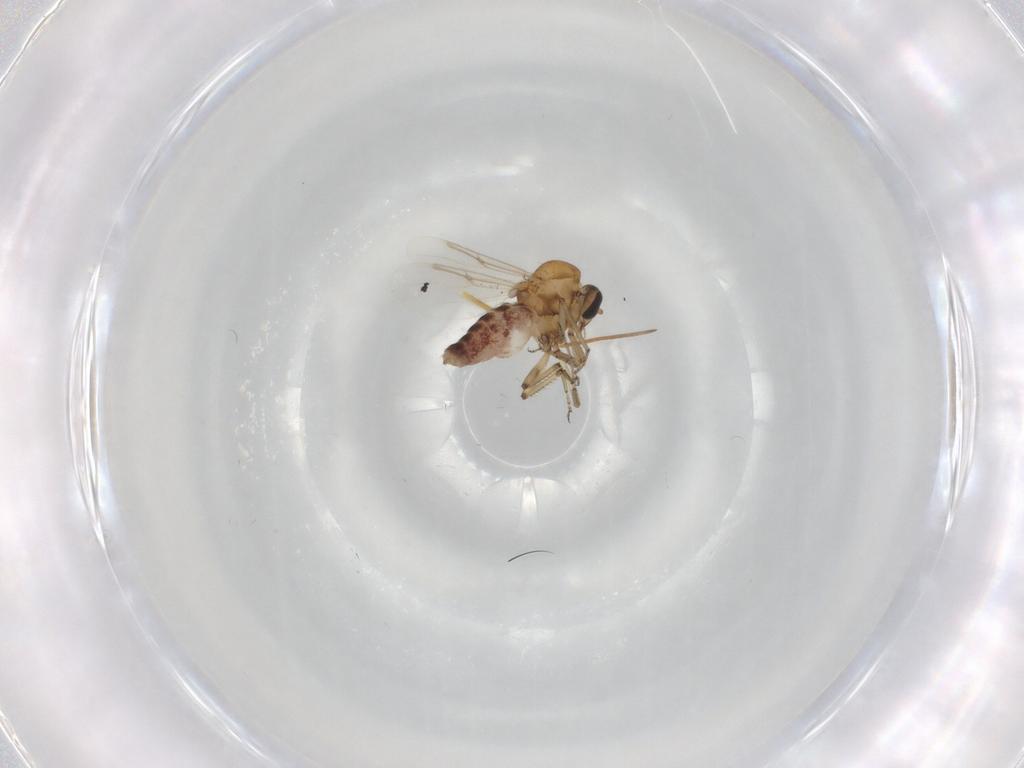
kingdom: Animalia
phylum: Arthropoda
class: Insecta
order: Diptera
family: Ceratopogonidae
